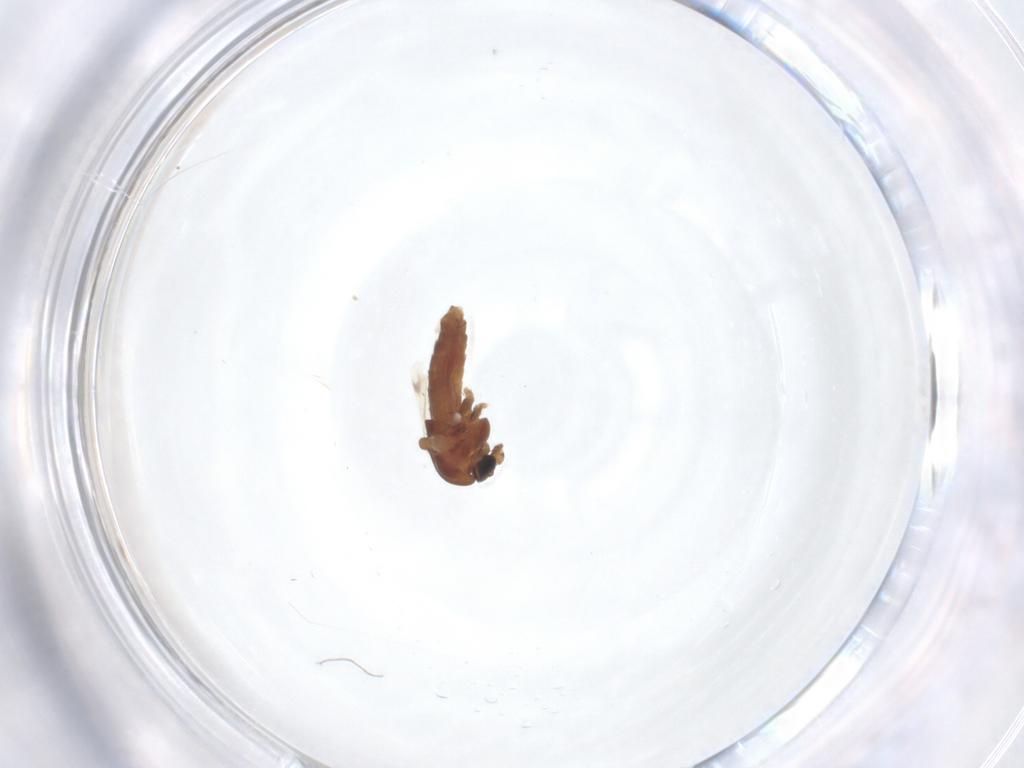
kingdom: Animalia
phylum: Arthropoda
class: Insecta
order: Diptera
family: Chironomidae
